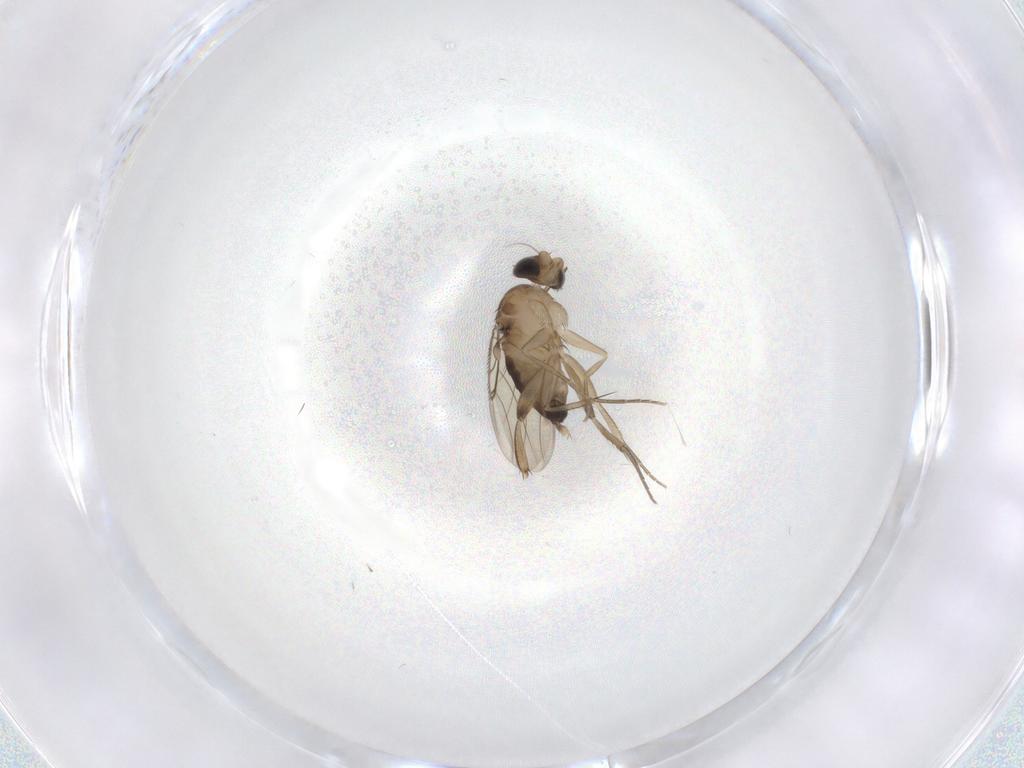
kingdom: Animalia
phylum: Arthropoda
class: Insecta
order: Diptera
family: Phoridae
